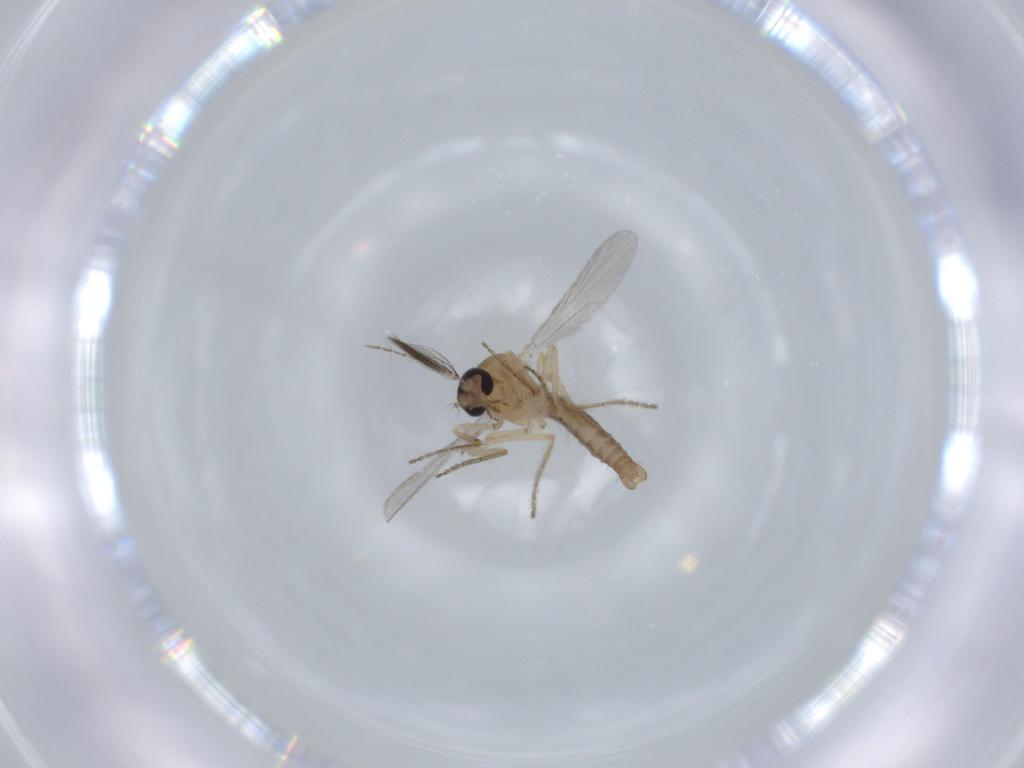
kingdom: Animalia
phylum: Arthropoda
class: Insecta
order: Diptera
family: Ceratopogonidae
